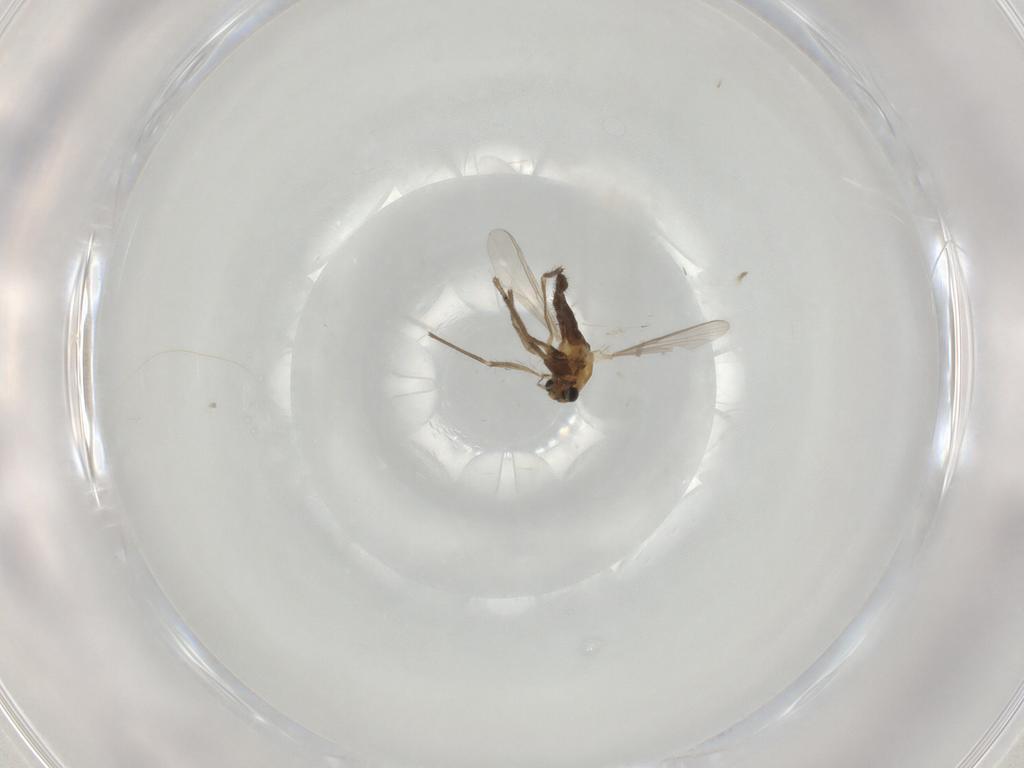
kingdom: Animalia
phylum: Arthropoda
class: Insecta
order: Diptera
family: Chironomidae
